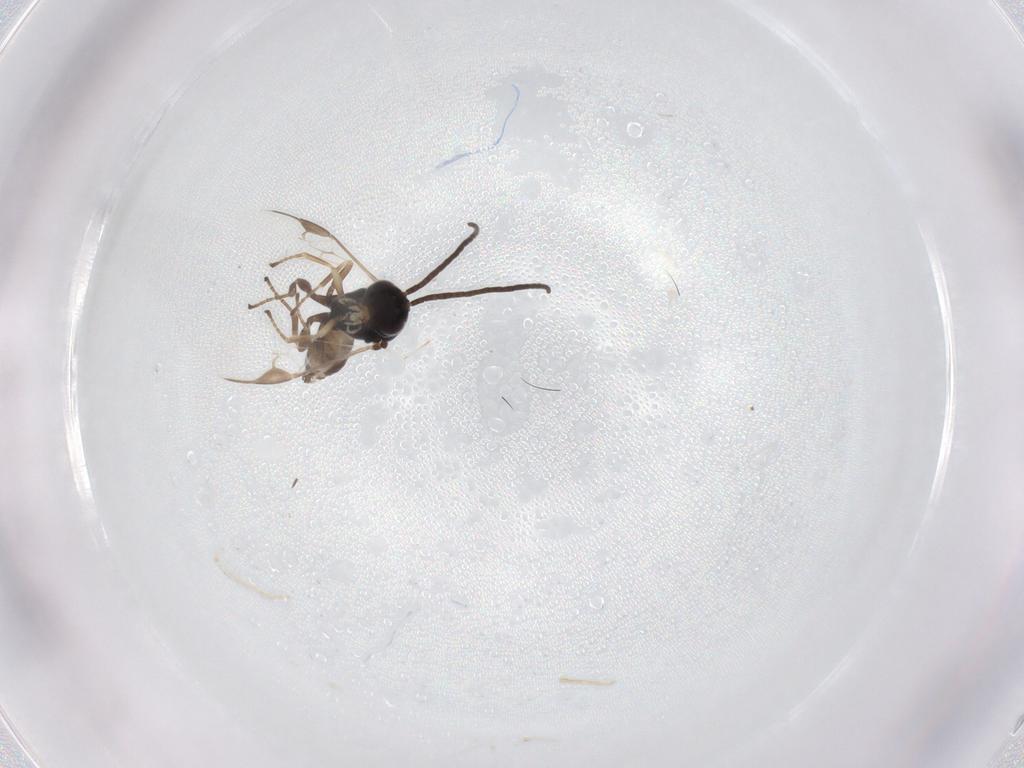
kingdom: Animalia
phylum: Arthropoda
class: Insecta
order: Hymenoptera
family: Braconidae
